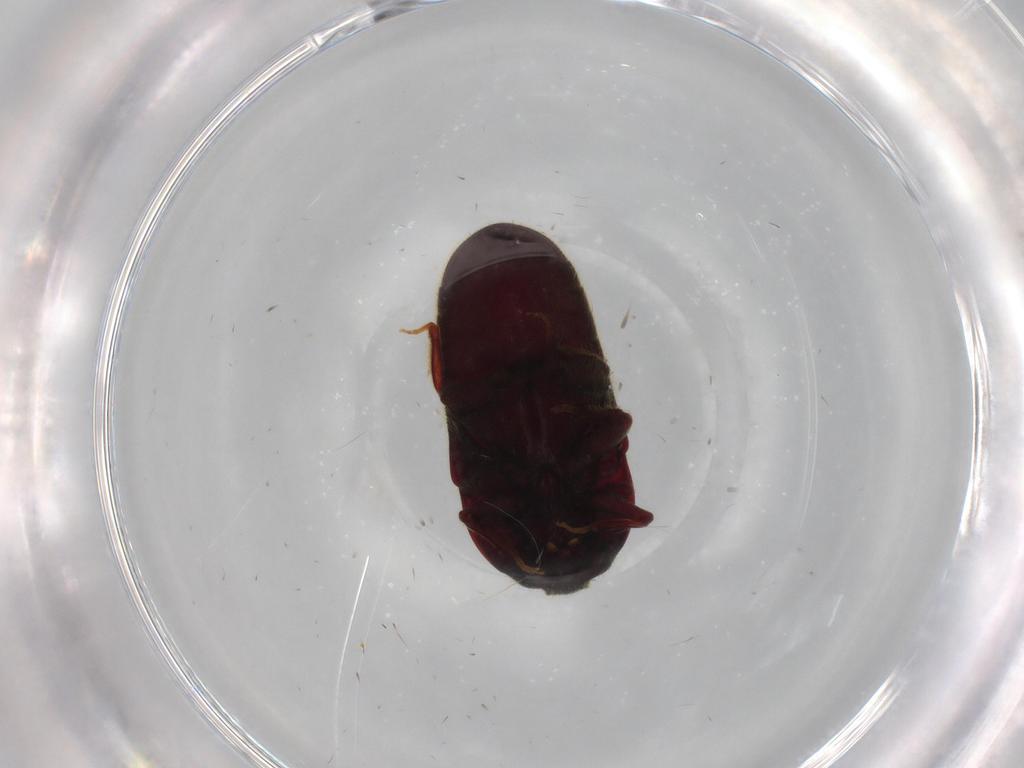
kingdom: Animalia
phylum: Arthropoda
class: Insecta
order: Coleoptera
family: Throscidae
